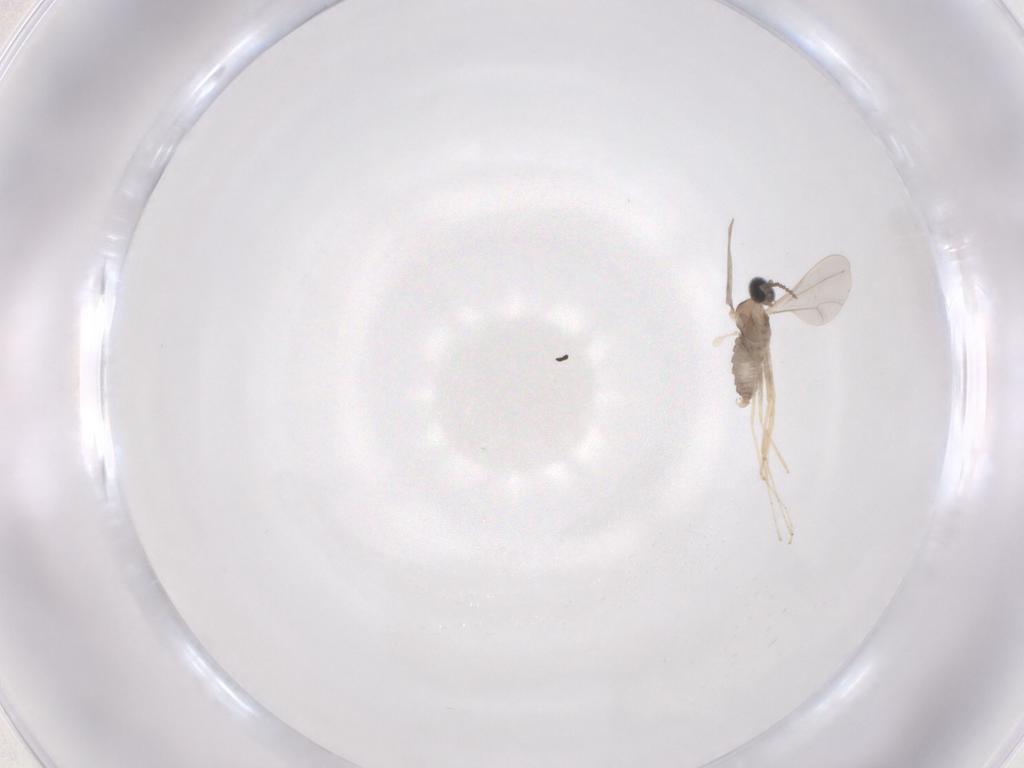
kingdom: Animalia
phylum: Arthropoda
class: Insecta
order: Diptera
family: Cecidomyiidae
